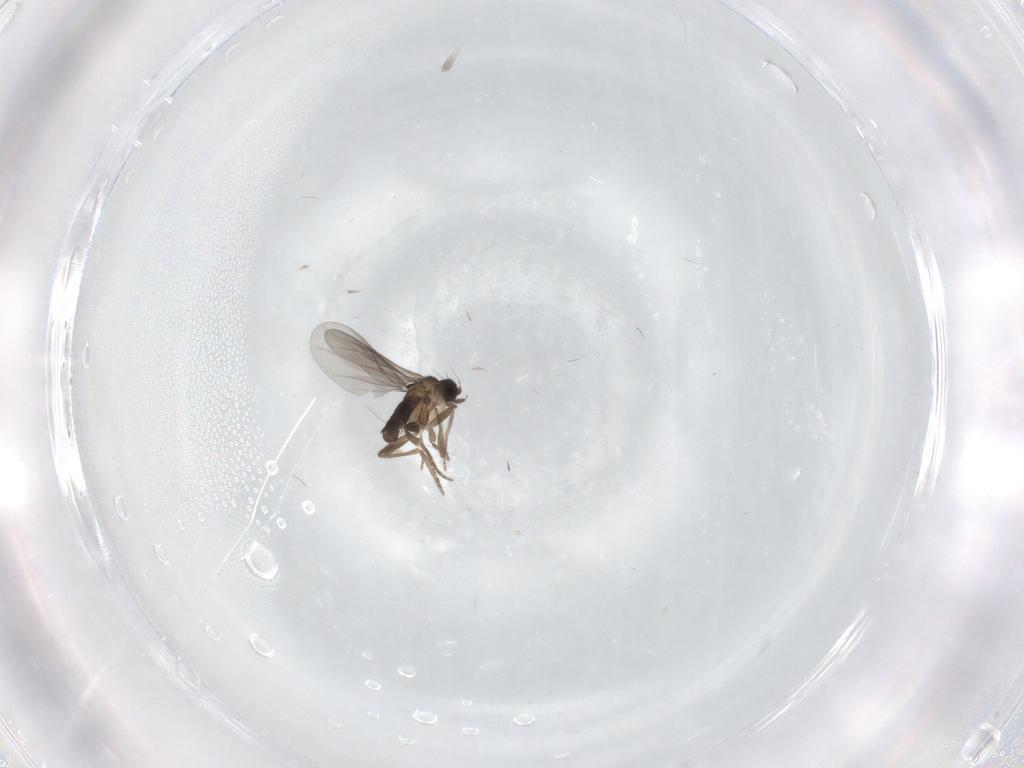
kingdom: Animalia
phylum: Arthropoda
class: Insecta
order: Diptera
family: Cecidomyiidae
